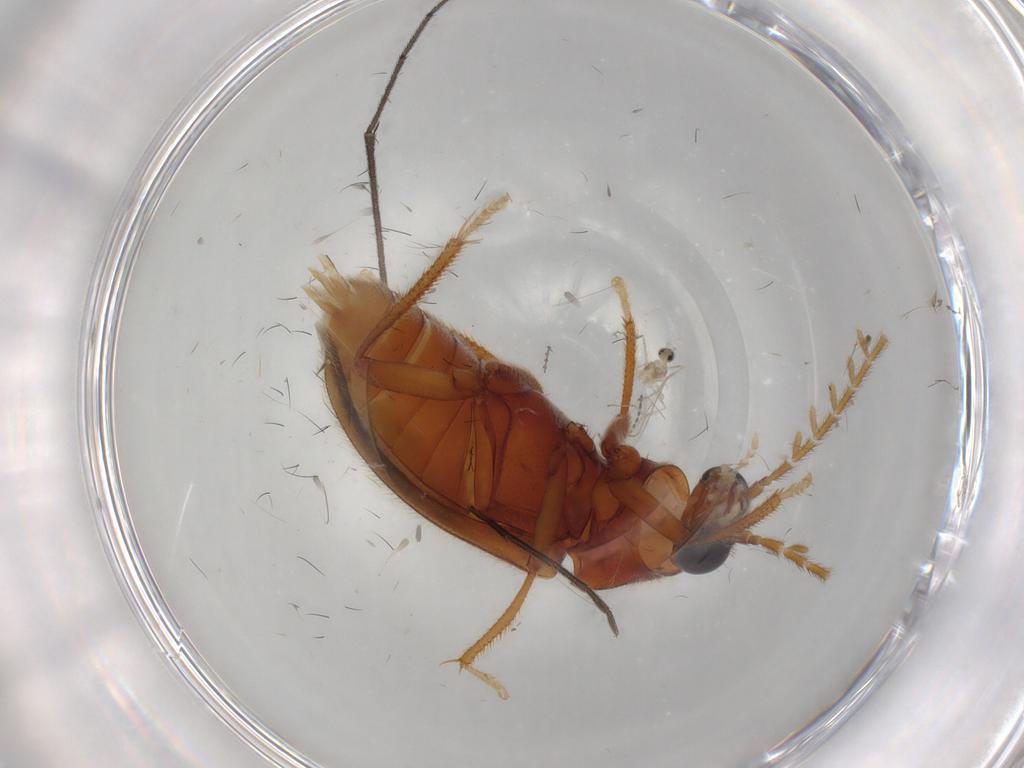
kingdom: Animalia
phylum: Arthropoda
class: Insecta
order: Coleoptera
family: Ptilodactylidae
